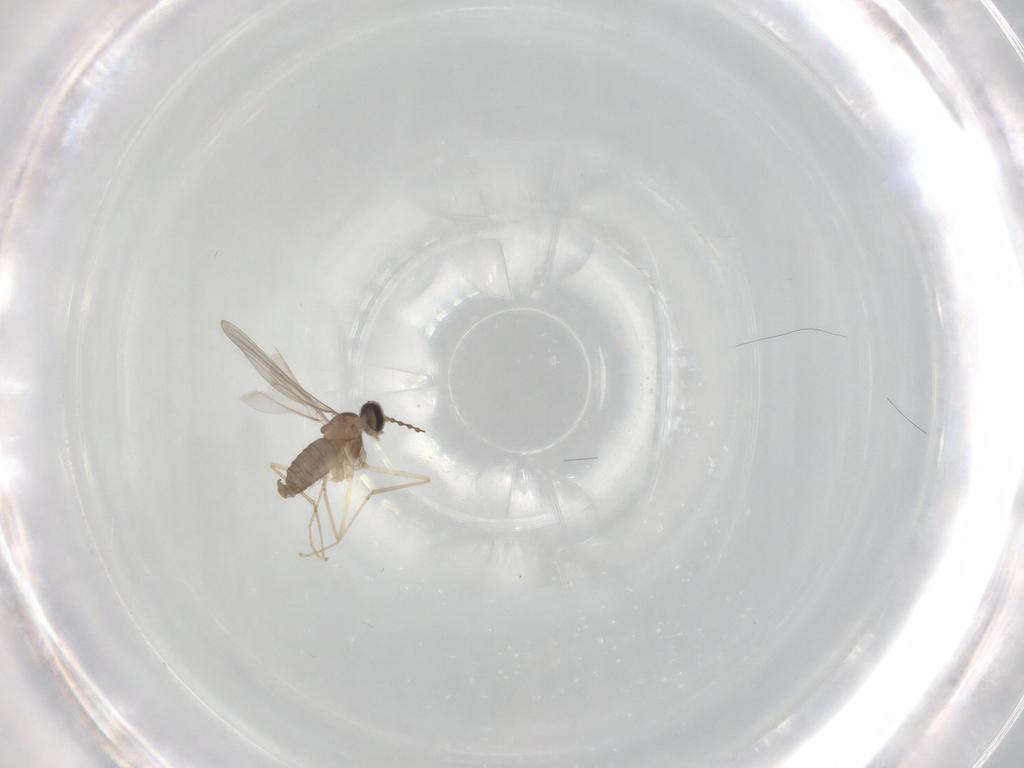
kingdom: Animalia
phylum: Arthropoda
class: Insecta
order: Diptera
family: Cecidomyiidae
